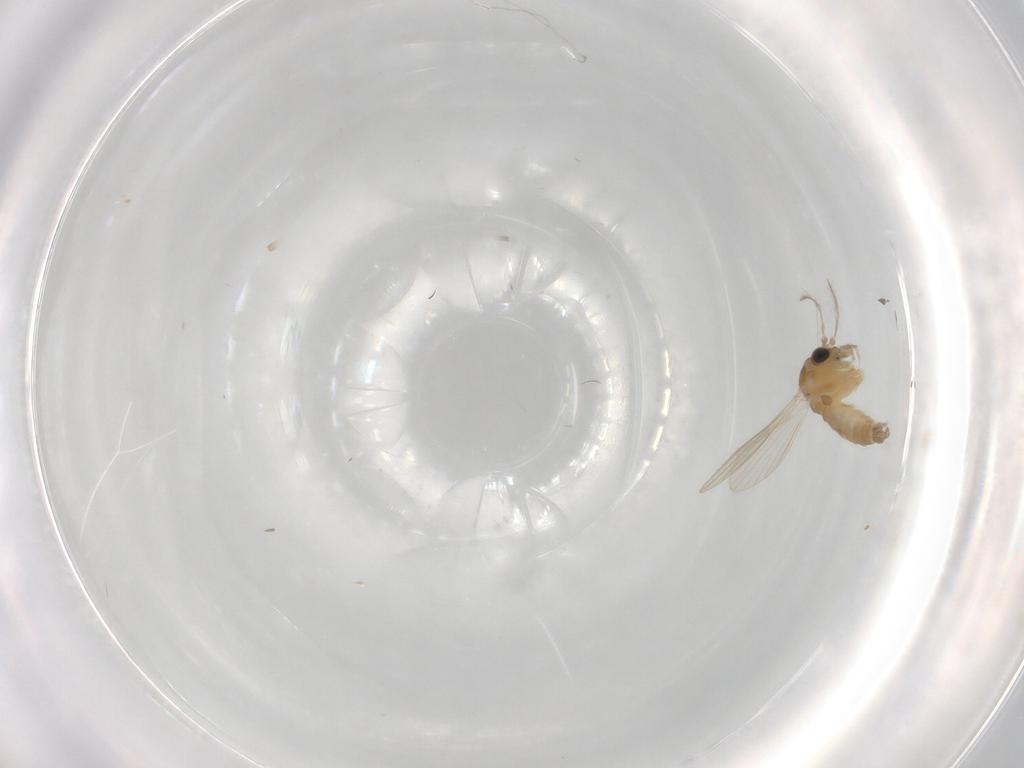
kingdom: Animalia
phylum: Arthropoda
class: Insecta
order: Diptera
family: Psychodidae
